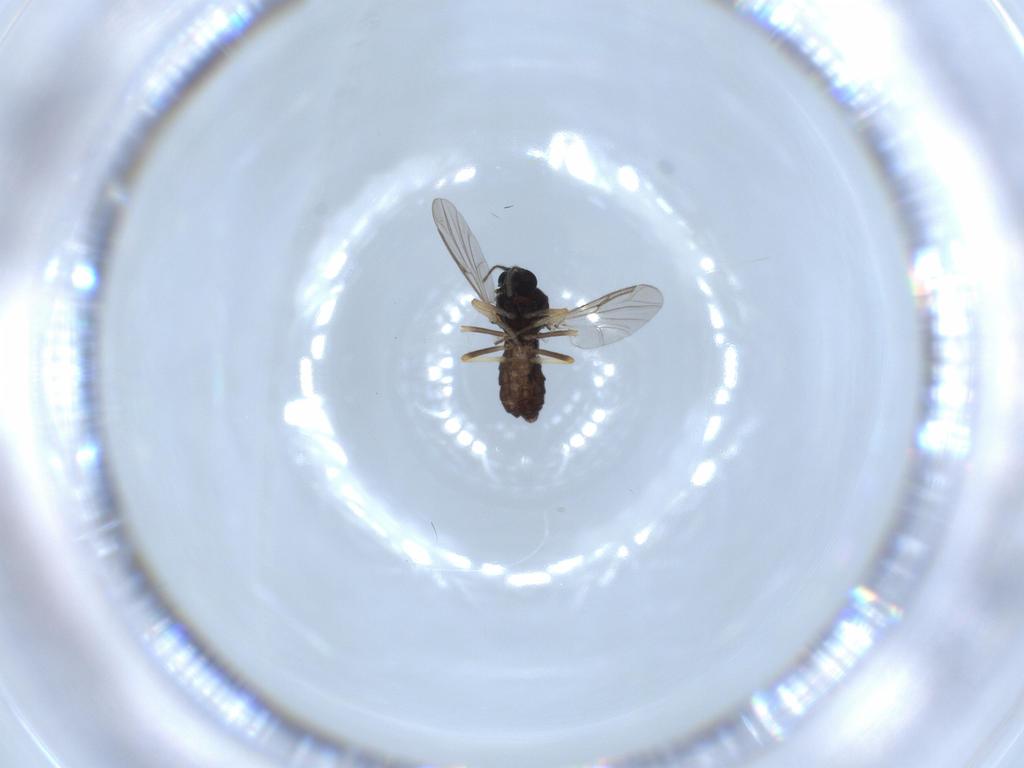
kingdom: Animalia
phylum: Arthropoda
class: Insecta
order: Diptera
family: Ceratopogonidae
